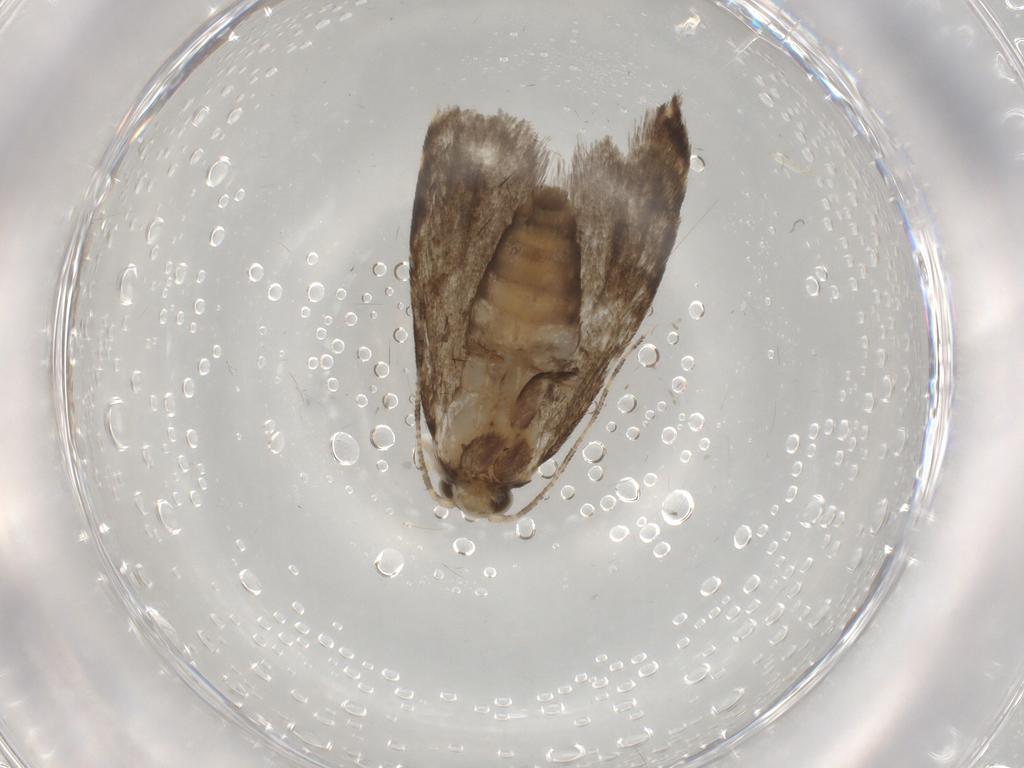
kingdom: Animalia
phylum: Arthropoda
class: Insecta
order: Lepidoptera
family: Tineidae
